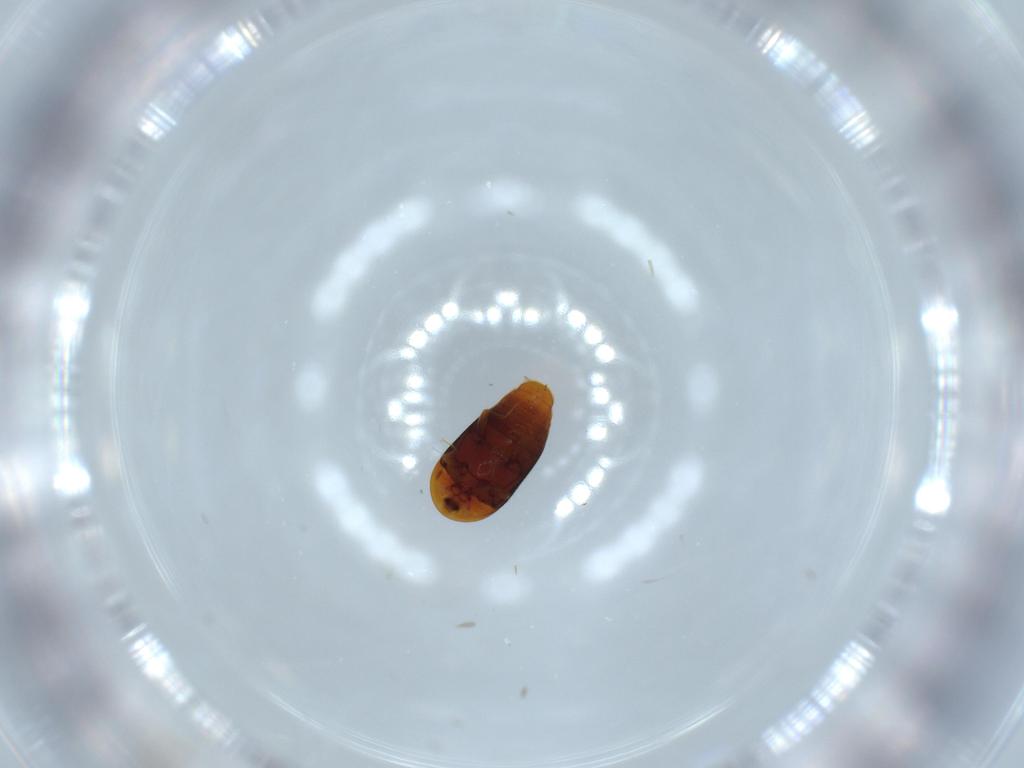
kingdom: Animalia
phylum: Arthropoda
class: Insecta
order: Coleoptera
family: Corylophidae
